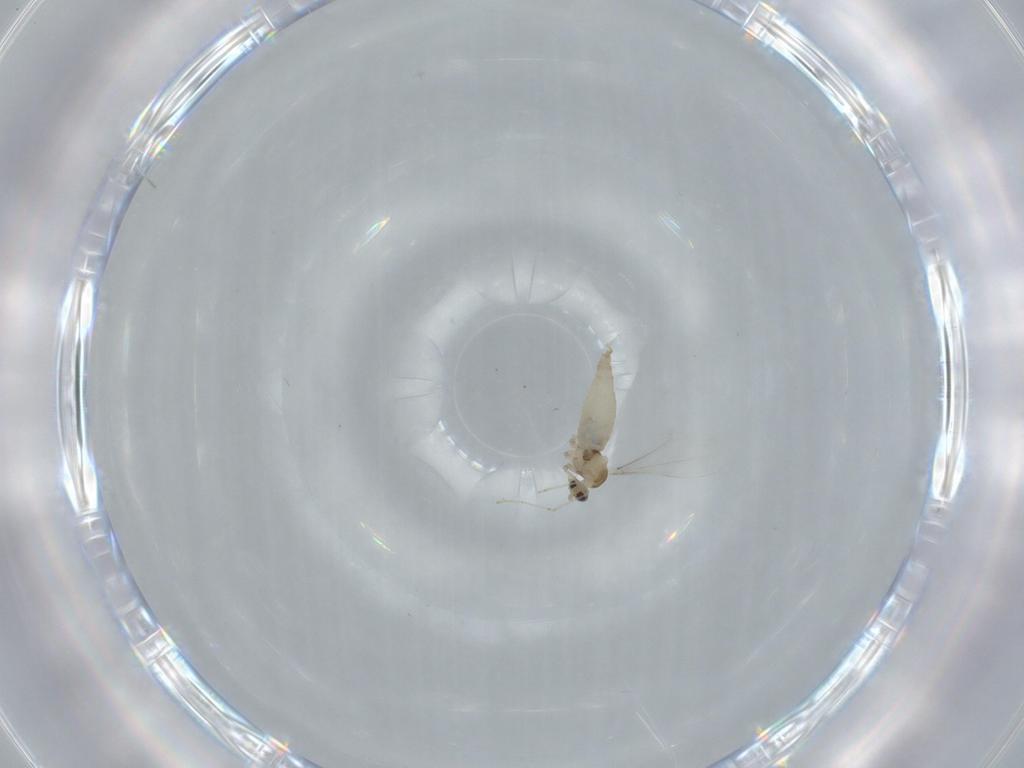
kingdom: Animalia
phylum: Arthropoda
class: Insecta
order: Diptera
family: Cecidomyiidae
